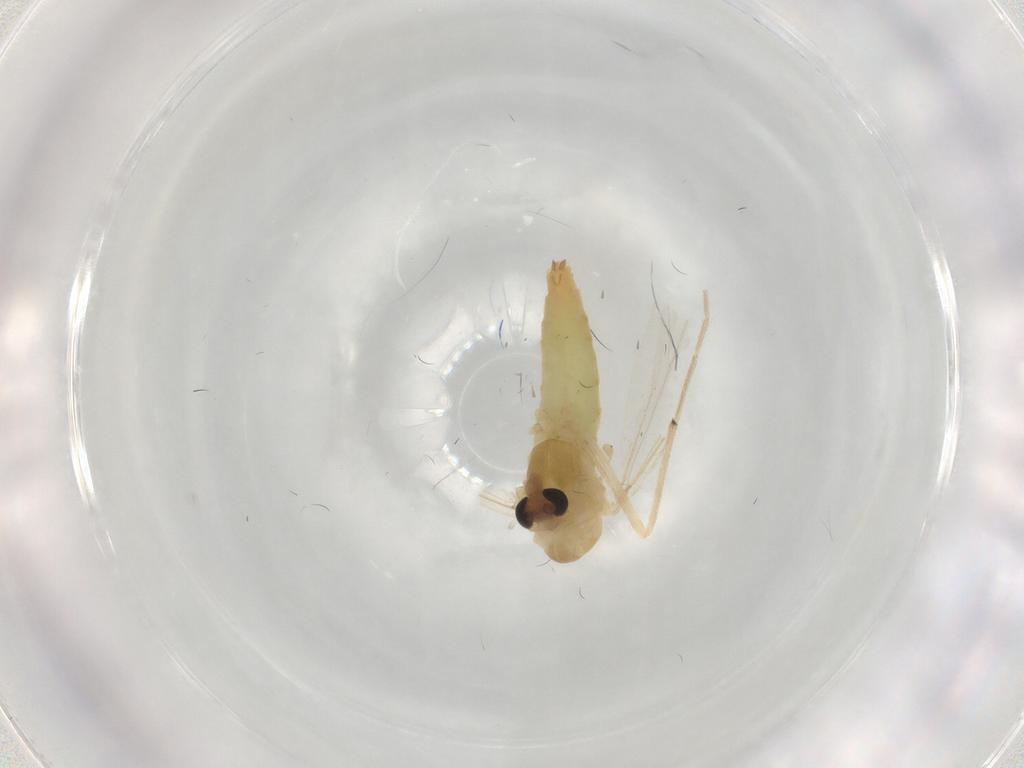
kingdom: Animalia
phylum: Arthropoda
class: Insecta
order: Diptera
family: Chironomidae
